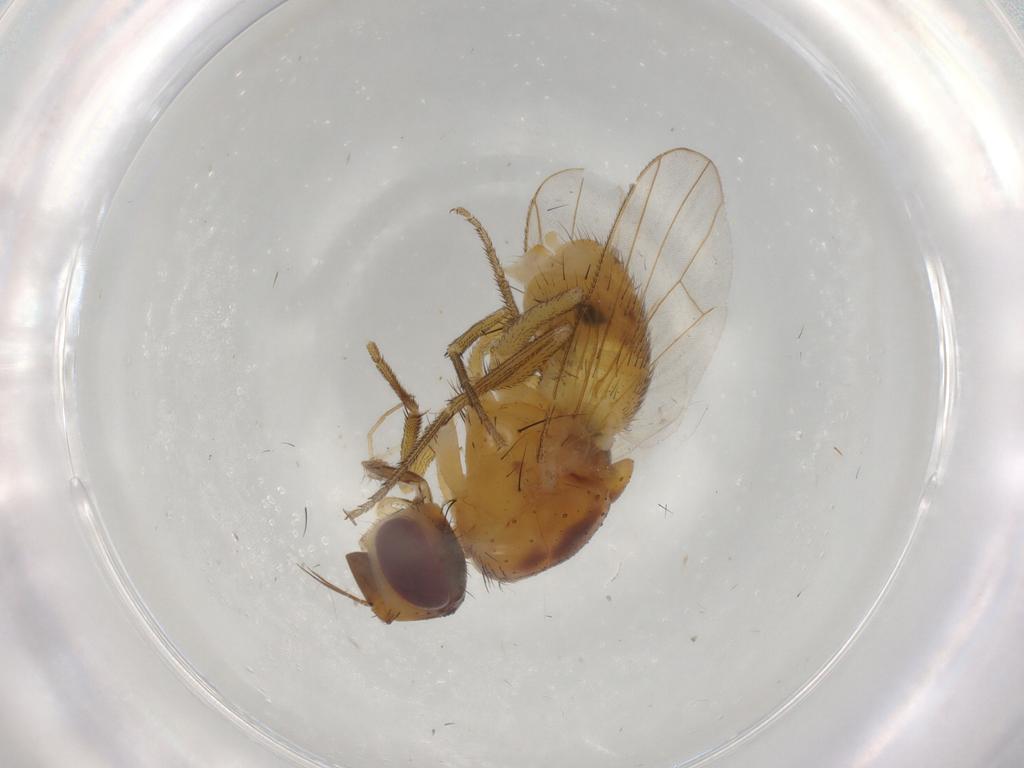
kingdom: Animalia
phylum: Arthropoda
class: Insecta
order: Diptera
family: Muscidae
